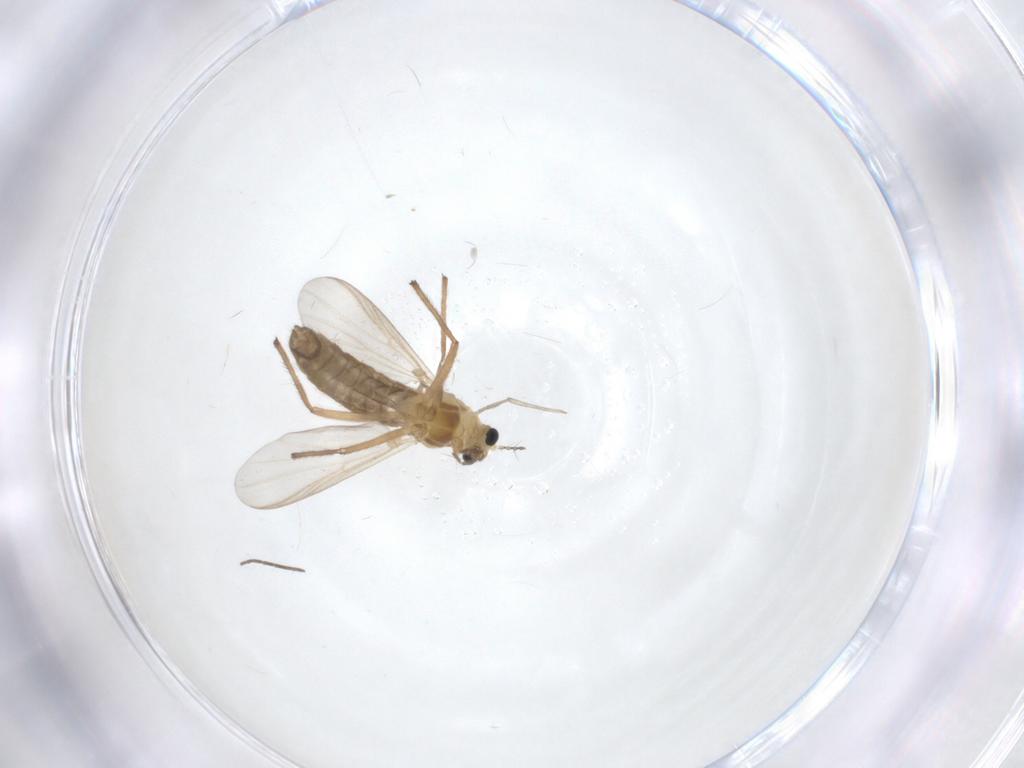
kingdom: Animalia
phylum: Arthropoda
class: Insecta
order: Diptera
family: Chironomidae
